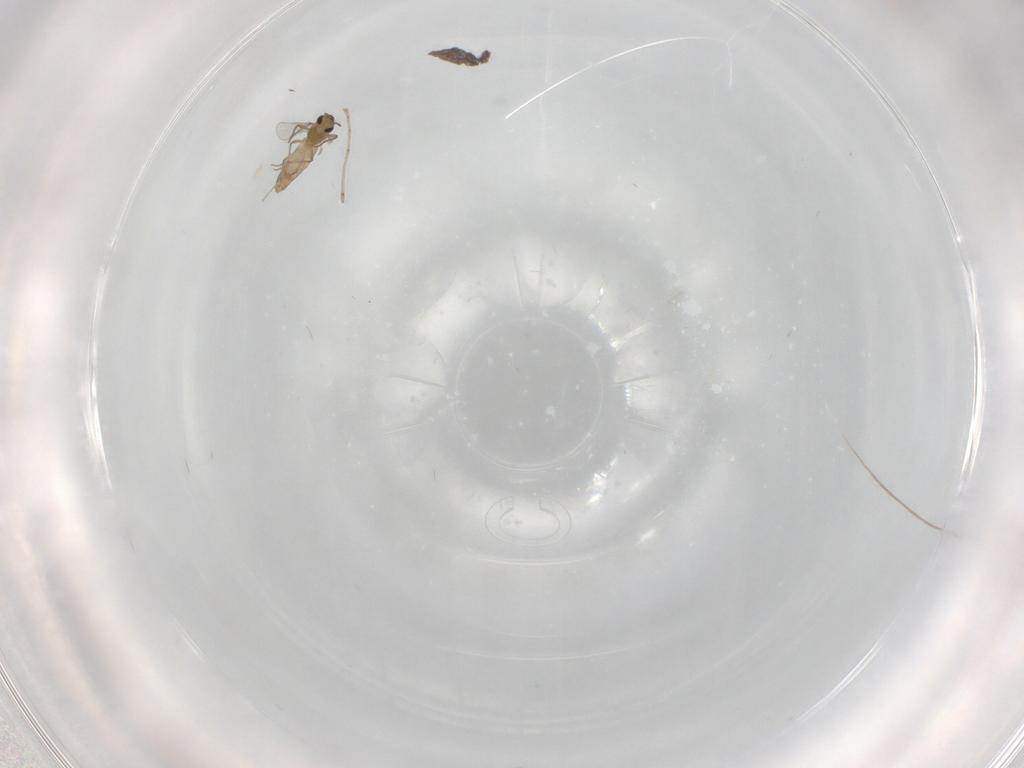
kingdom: Animalia
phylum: Arthropoda
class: Insecta
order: Diptera
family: Chironomidae
